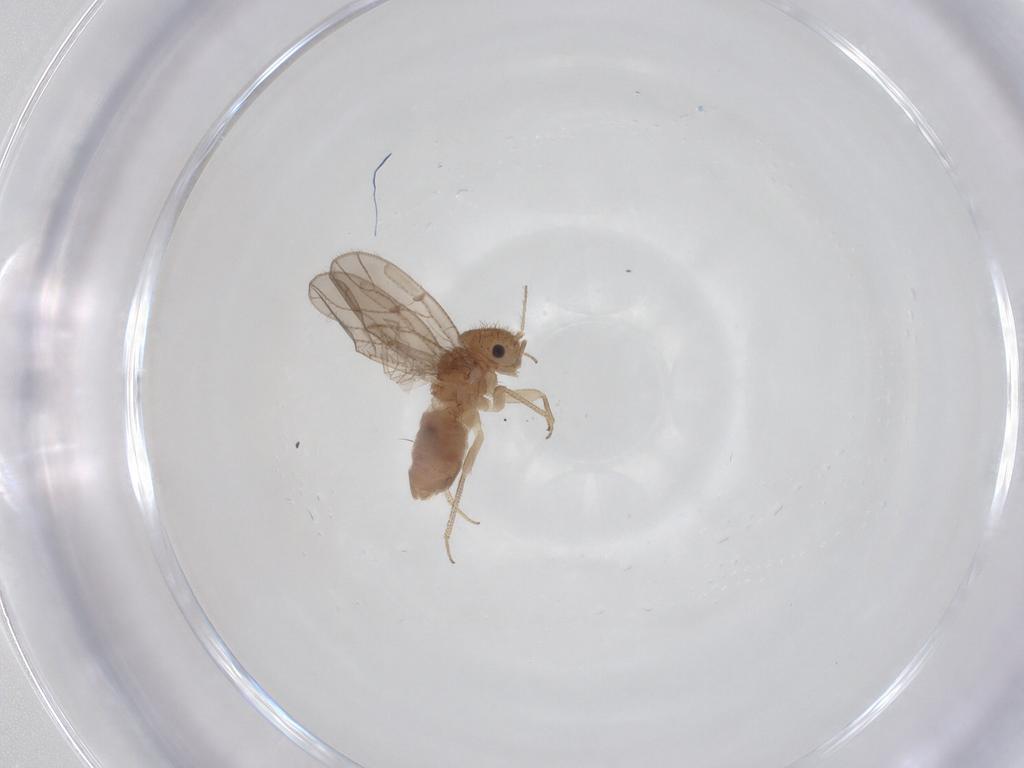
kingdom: Animalia
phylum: Arthropoda
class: Insecta
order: Psocodea
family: Ectopsocidae
